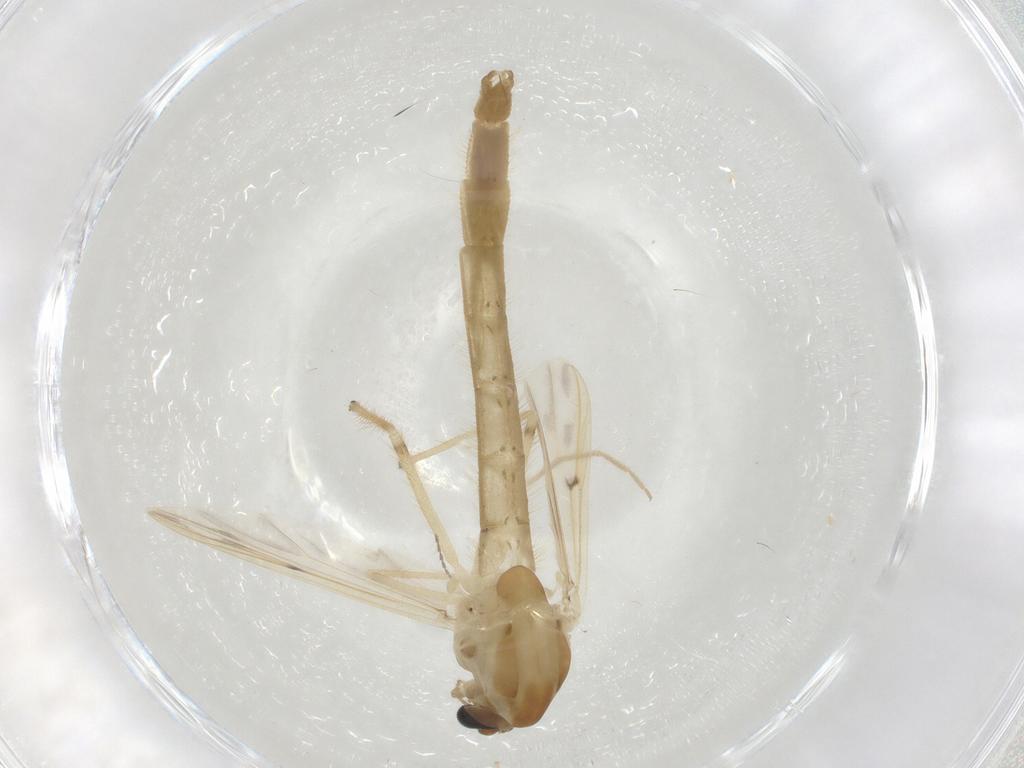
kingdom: Animalia
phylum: Arthropoda
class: Insecta
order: Diptera
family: Chironomidae
